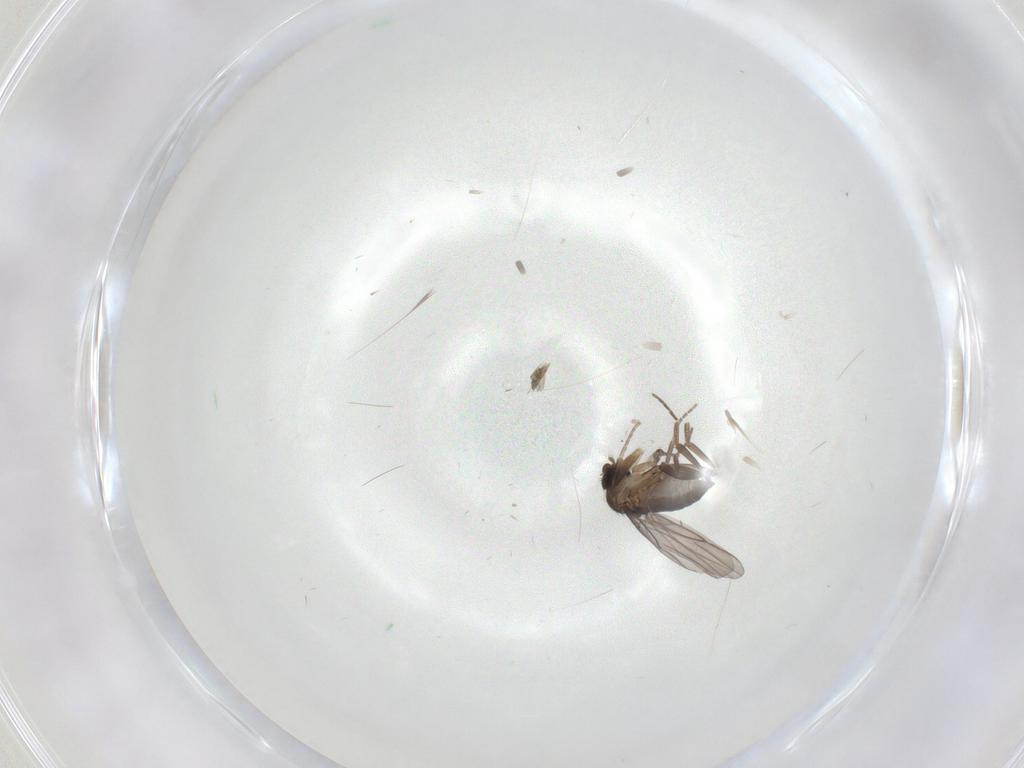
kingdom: Animalia
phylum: Arthropoda
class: Insecta
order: Diptera
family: Phoridae
